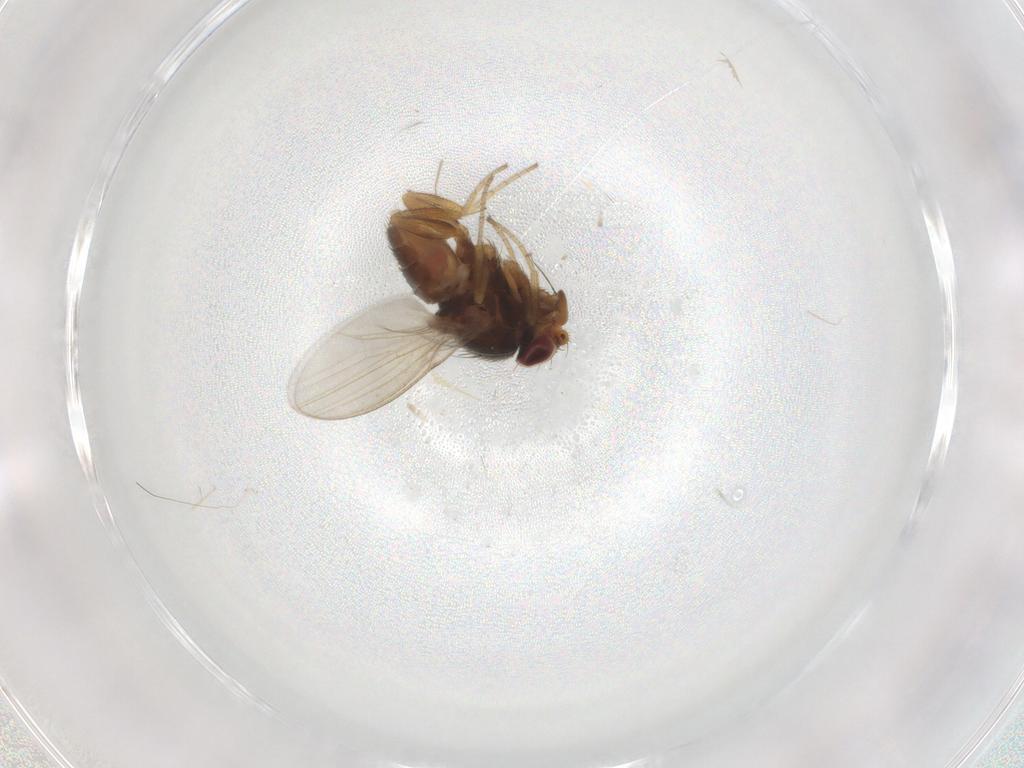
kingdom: Animalia
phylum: Arthropoda
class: Insecta
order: Diptera
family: Milichiidae
